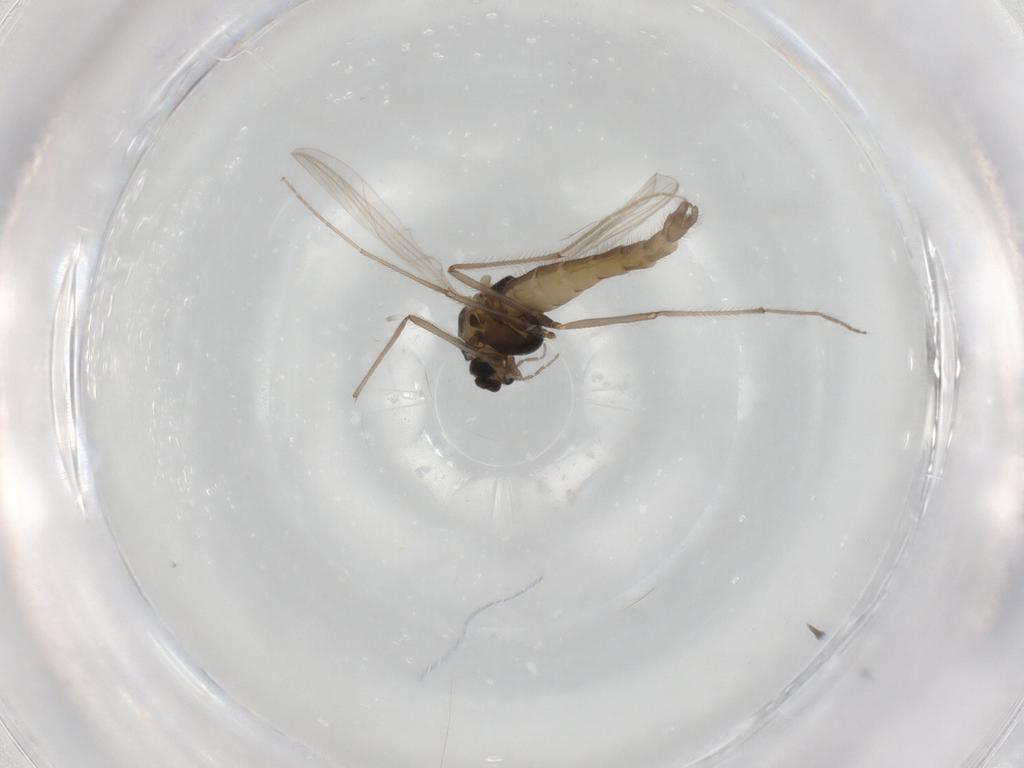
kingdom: Animalia
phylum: Arthropoda
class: Insecta
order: Diptera
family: Chironomidae
